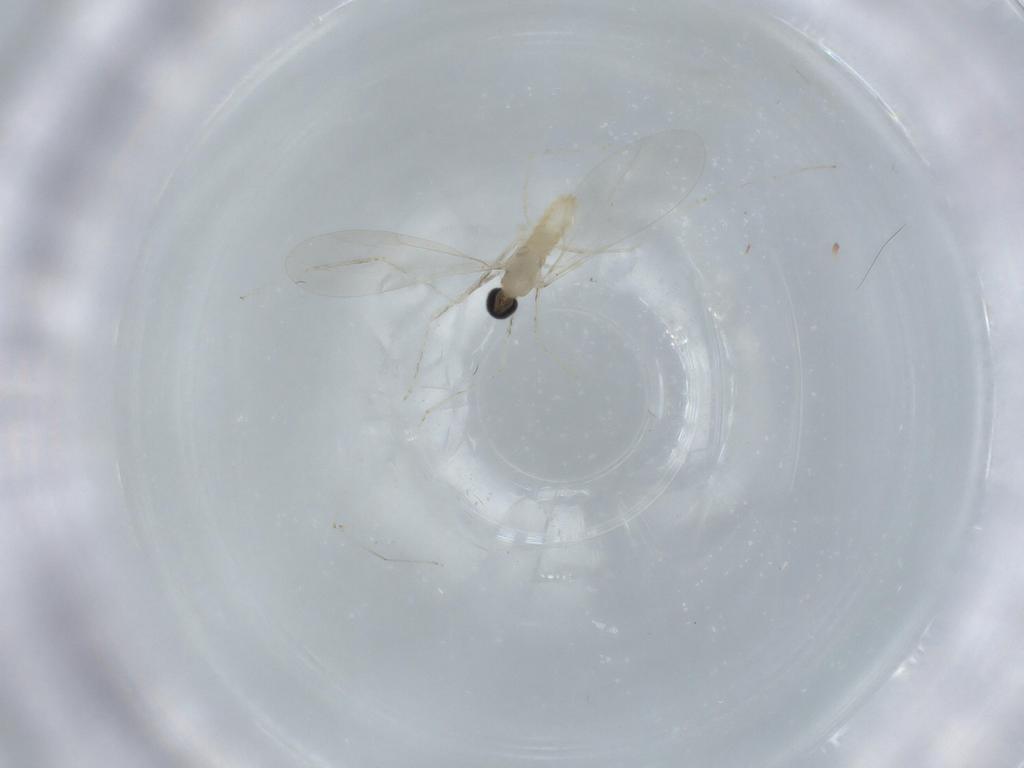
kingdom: Animalia
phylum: Arthropoda
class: Insecta
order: Diptera
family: Cecidomyiidae
